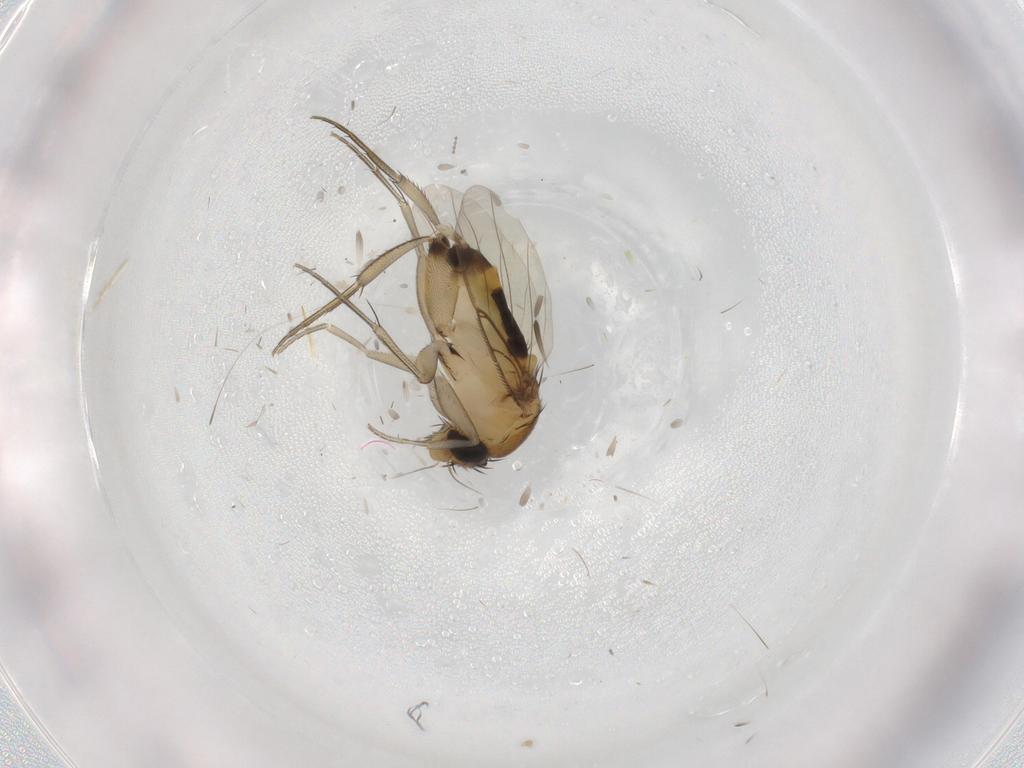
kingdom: Animalia
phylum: Arthropoda
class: Insecta
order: Diptera
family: Phoridae
